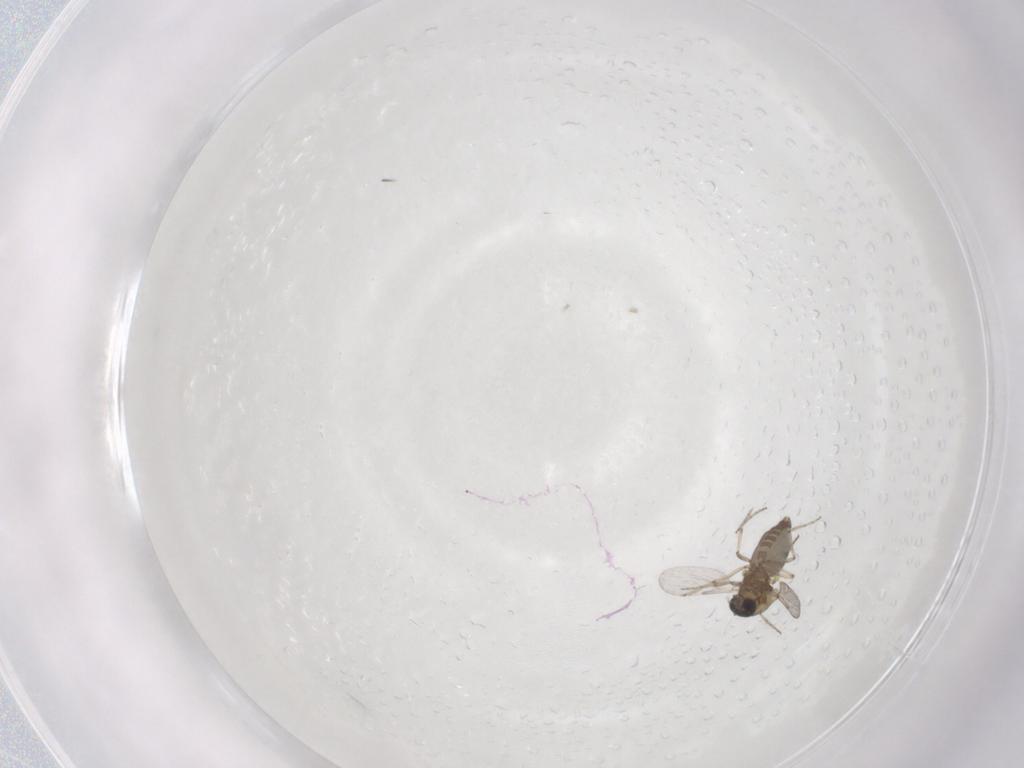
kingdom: Animalia
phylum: Arthropoda
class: Insecta
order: Diptera
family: Ceratopogonidae
